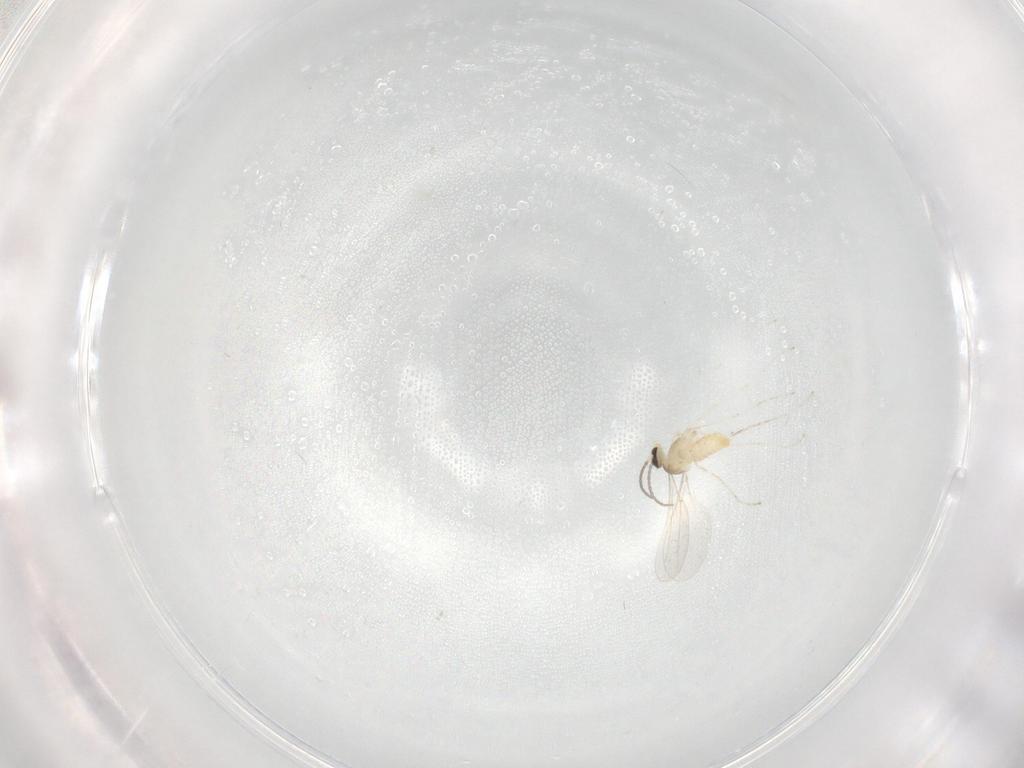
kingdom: Animalia
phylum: Arthropoda
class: Insecta
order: Diptera
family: Cecidomyiidae
